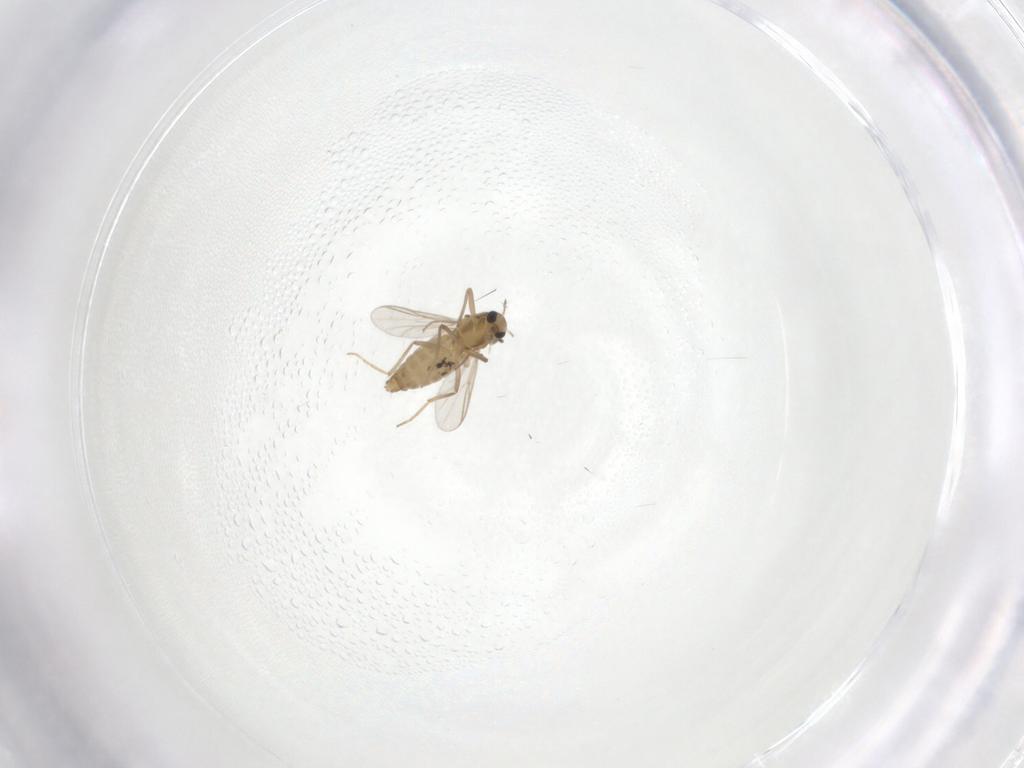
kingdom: Animalia
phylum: Arthropoda
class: Insecta
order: Diptera
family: Chironomidae
